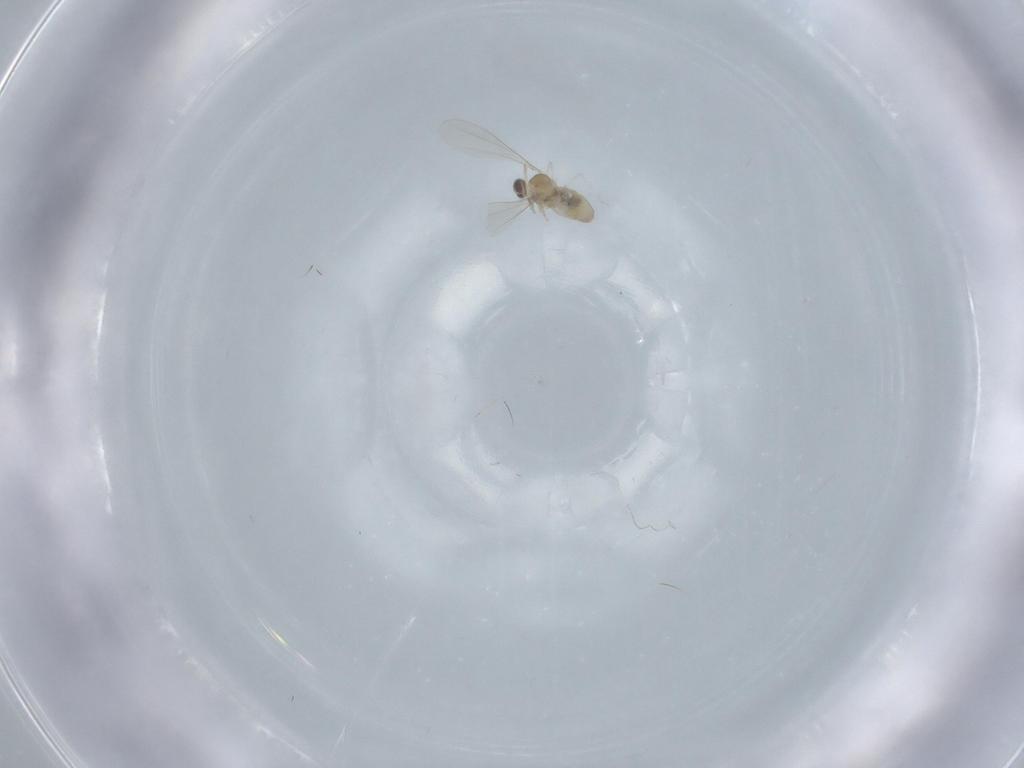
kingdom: Animalia
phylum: Arthropoda
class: Insecta
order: Diptera
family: Cecidomyiidae
